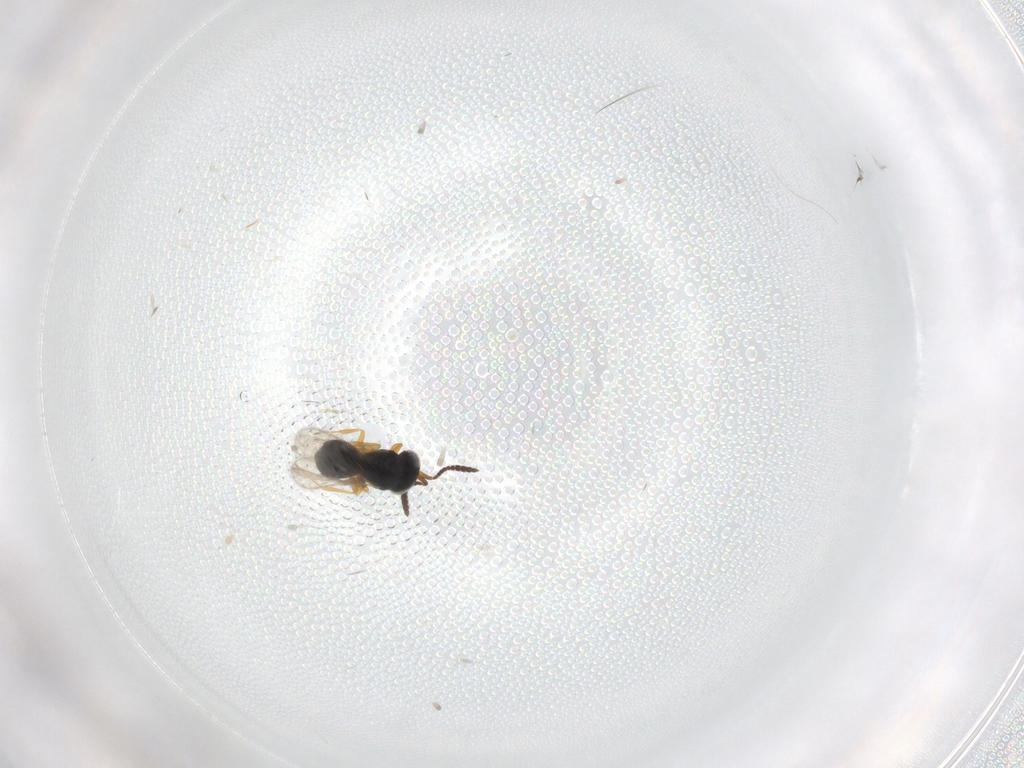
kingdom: Animalia
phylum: Arthropoda
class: Insecta
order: Hymenoptera
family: Scelionidae
